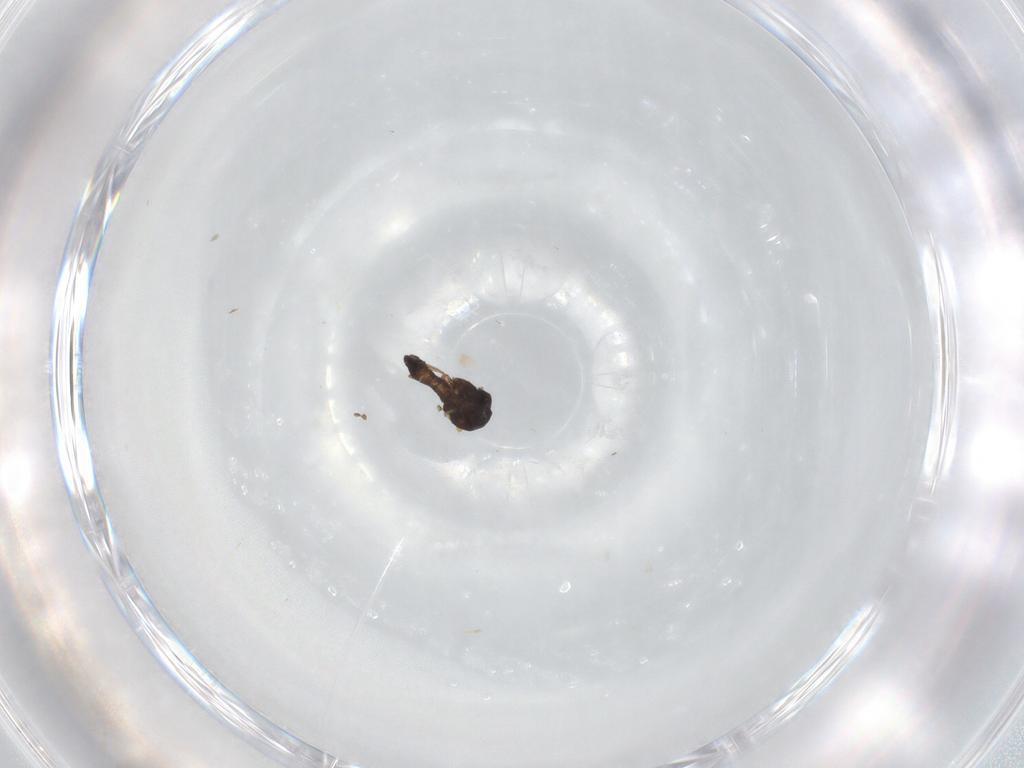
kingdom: Animalia
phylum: Arthropoda
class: Insecta
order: Diptera
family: Ceratopogonidae
